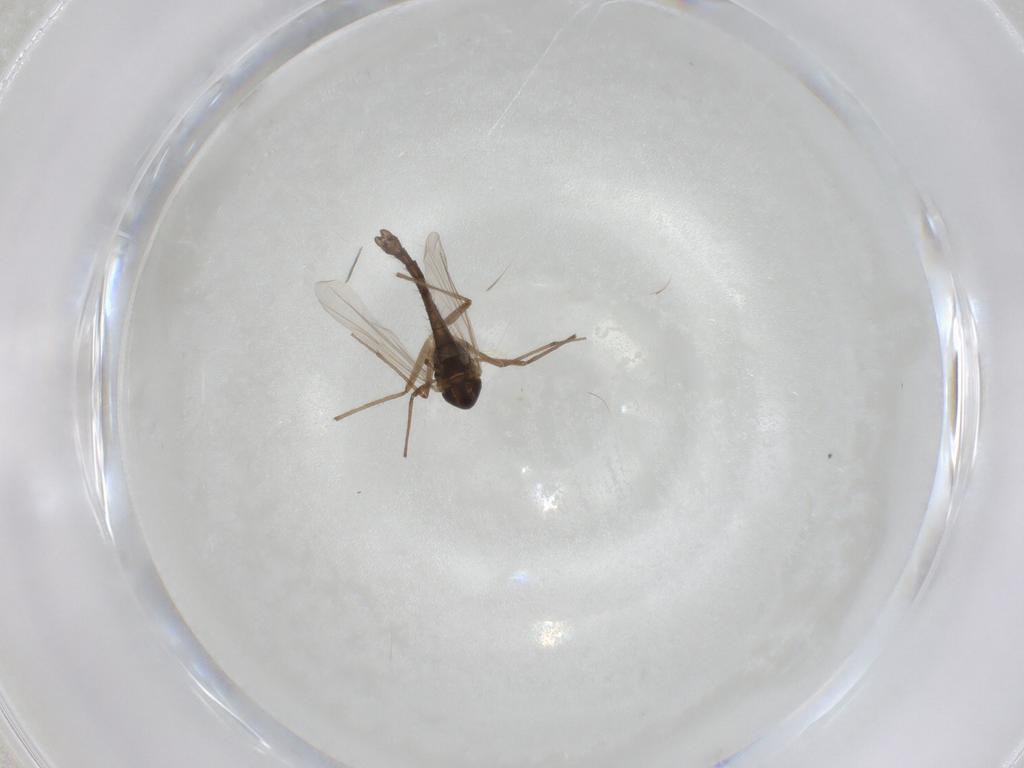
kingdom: Animalia
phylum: Arthropoda
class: Insecta
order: Diptera
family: Chironomidae
